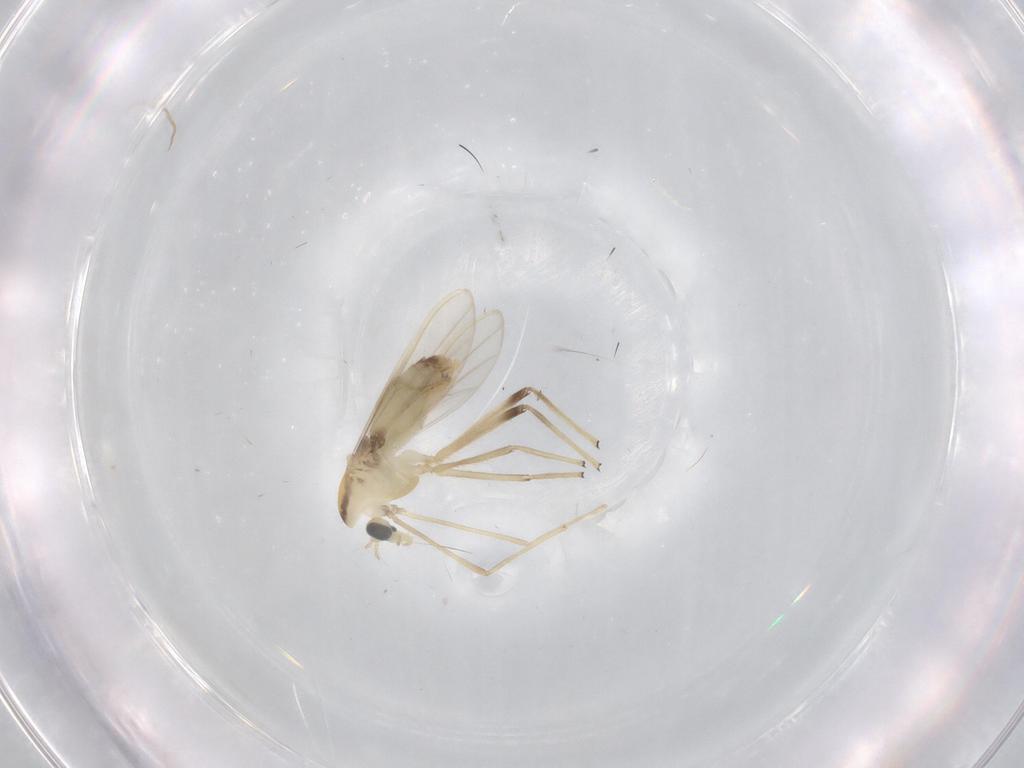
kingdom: Animalia
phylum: Arthropoda
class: Insecta
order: Diptera
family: Chironomidae
